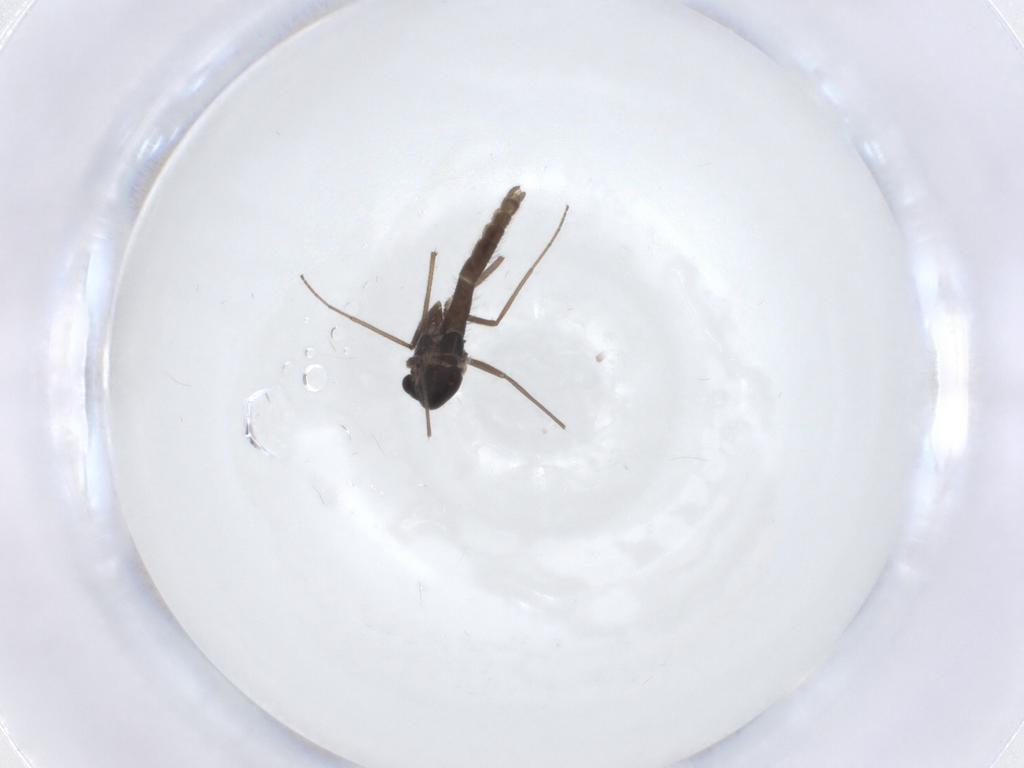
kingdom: Animalia
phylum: Arthropoda
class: Insecta
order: Diptera
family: Chironomidae
